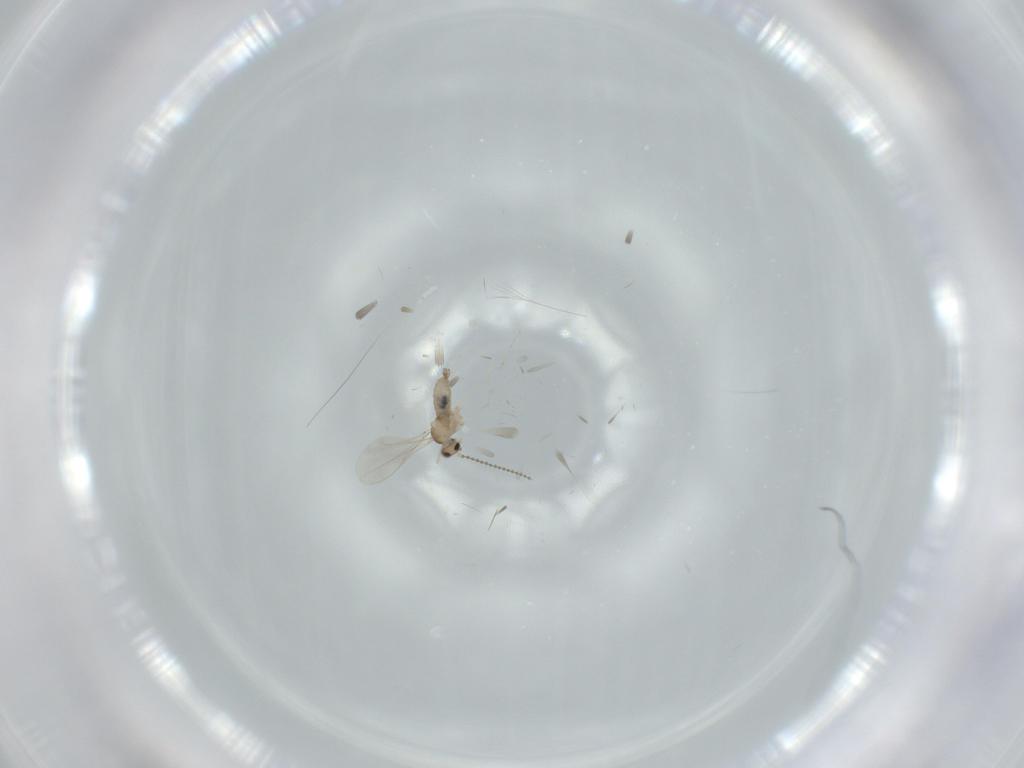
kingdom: Animalia
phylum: Arthropoda
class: Insecta
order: Diptera
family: Cecidomyiidae
